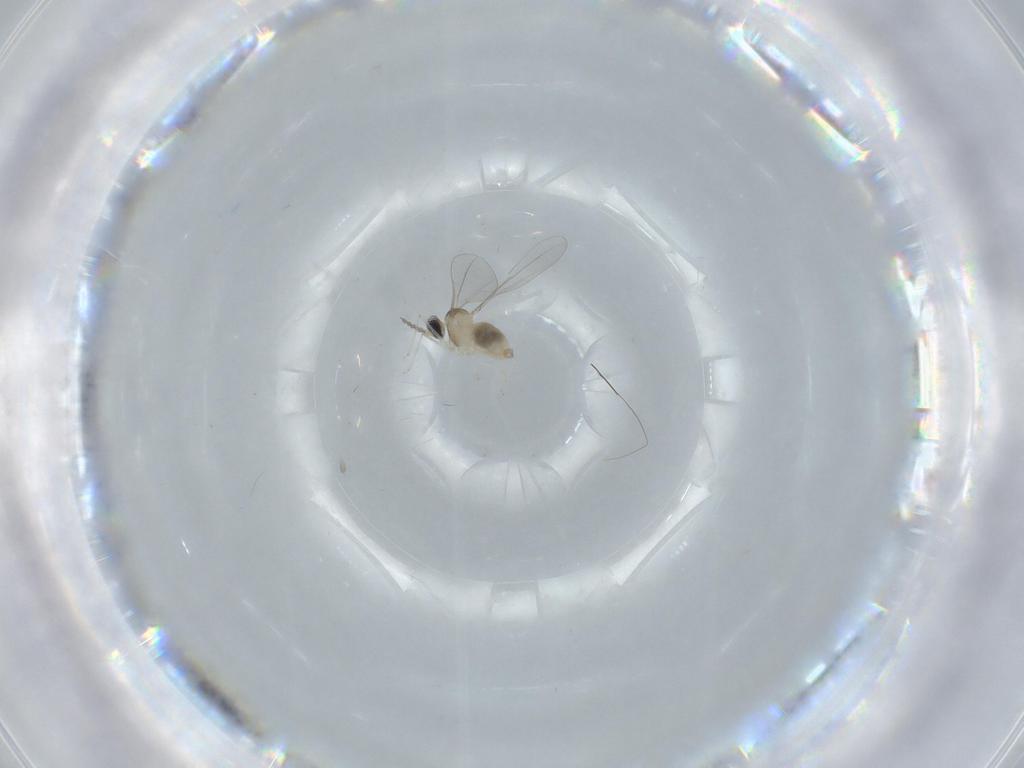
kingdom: Animalia
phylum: Arthropoda
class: Insecta
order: Diptera
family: Cecidomyiidae
